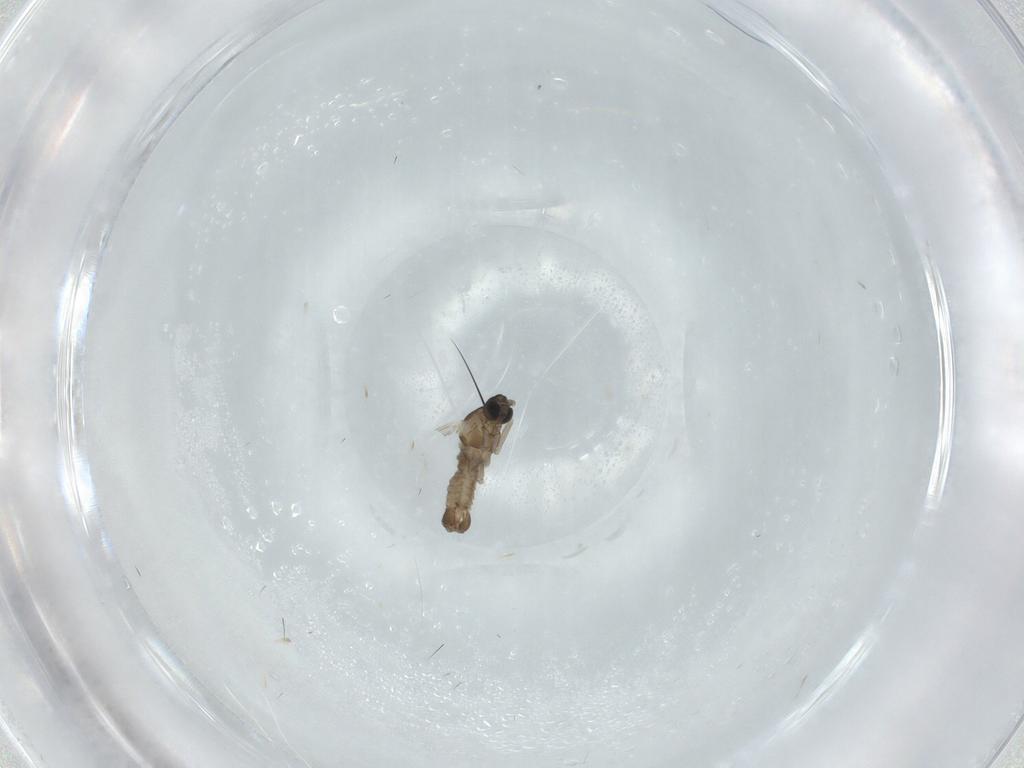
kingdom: Animalia
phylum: Arthropoda
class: Insecta
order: Diptera
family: Cecidomyiidae
